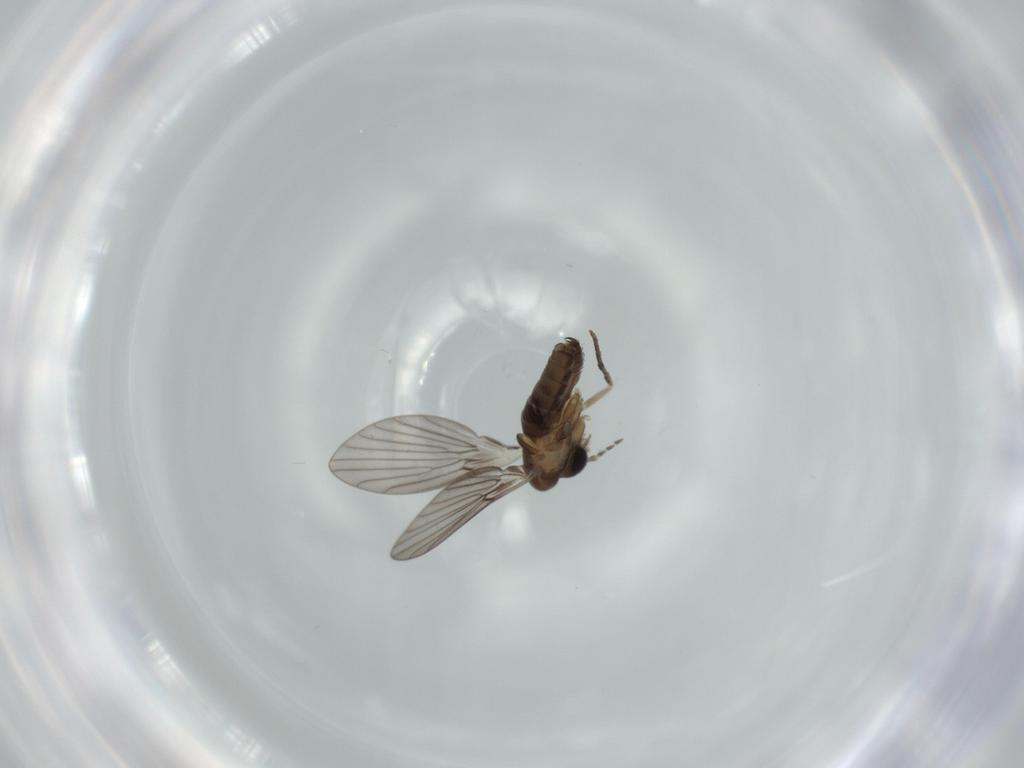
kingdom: Animalia
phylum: Arthropoda
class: Insecta
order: Diptera
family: Psychodidae
